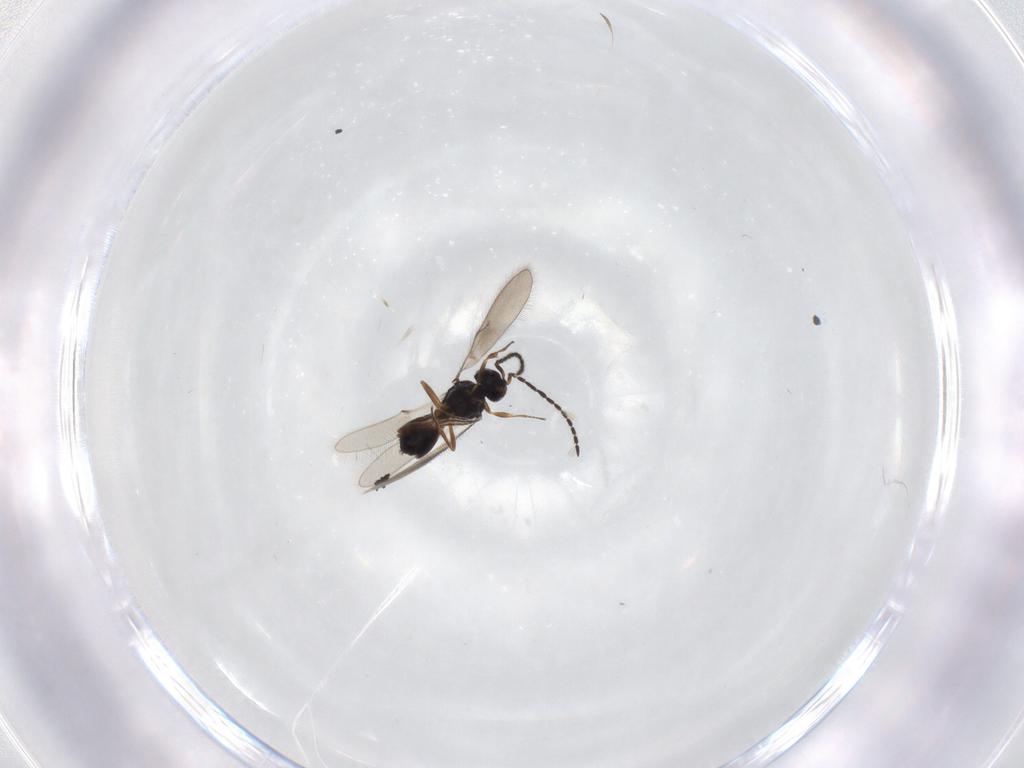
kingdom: Animalia
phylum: Arthropoda
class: Insecta
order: Hymenoptera
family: Scelionidae
